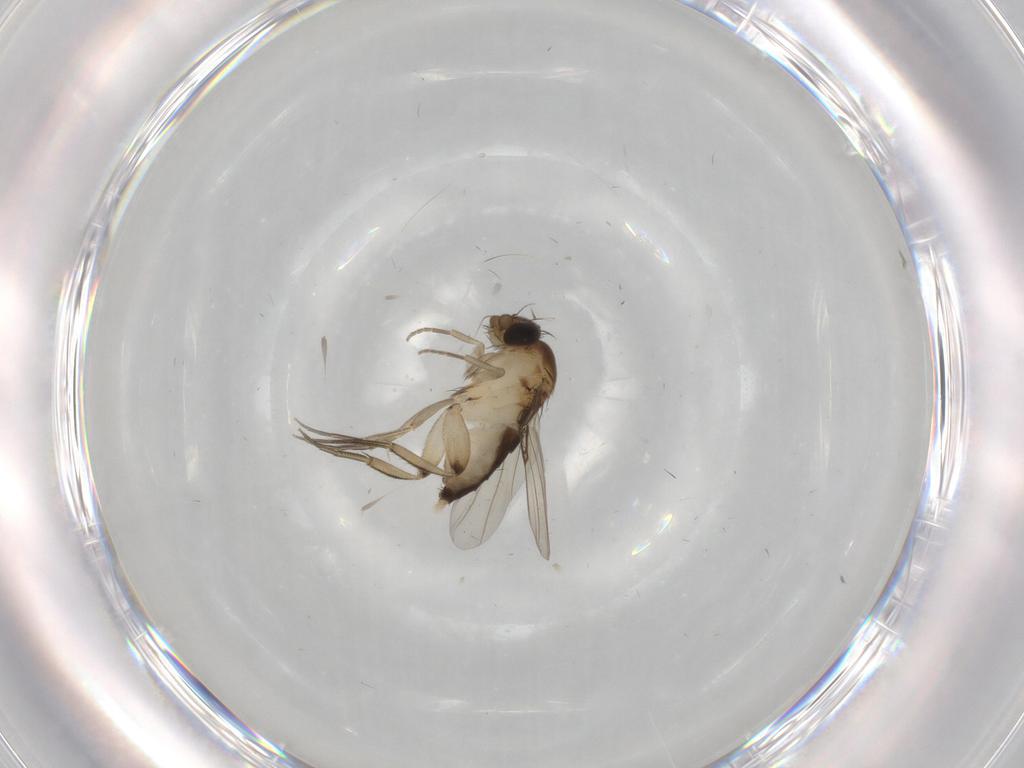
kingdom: Animalia
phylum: Arthropoda
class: Insecta
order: Diptera
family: Phoridae
